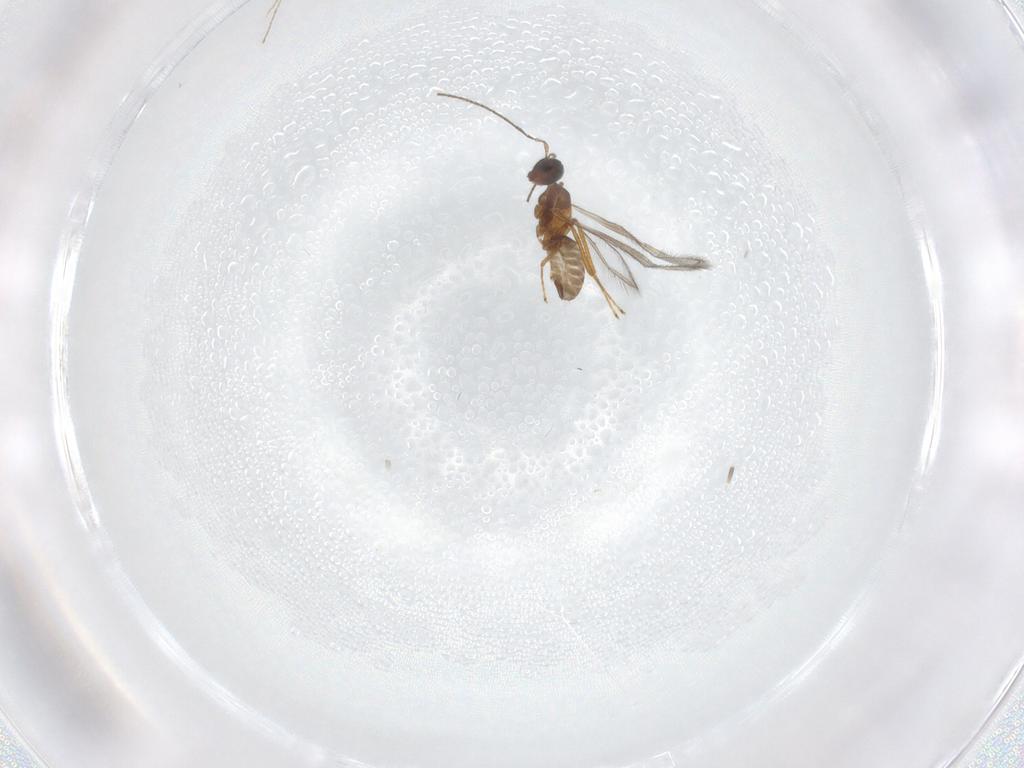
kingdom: Animalia
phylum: Arthropoda
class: Insecta
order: Hymenoptera
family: Mymaridae
